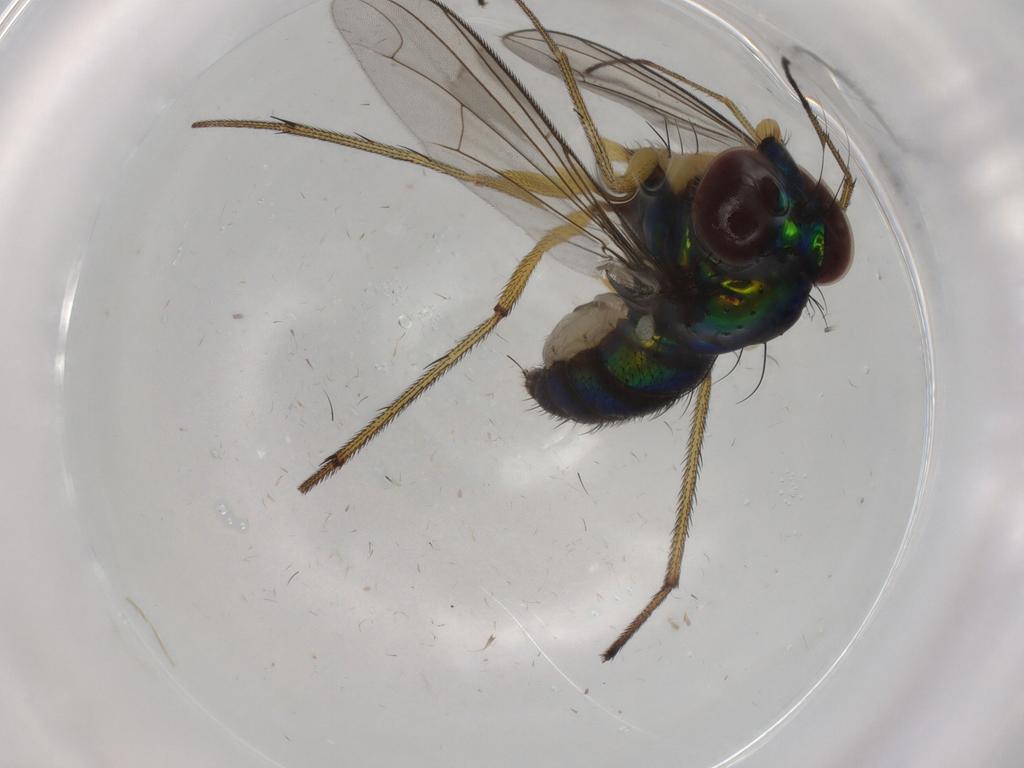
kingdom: Animalia
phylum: Arthropoda
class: Insecta
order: Diptera
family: Dolichopodidae
